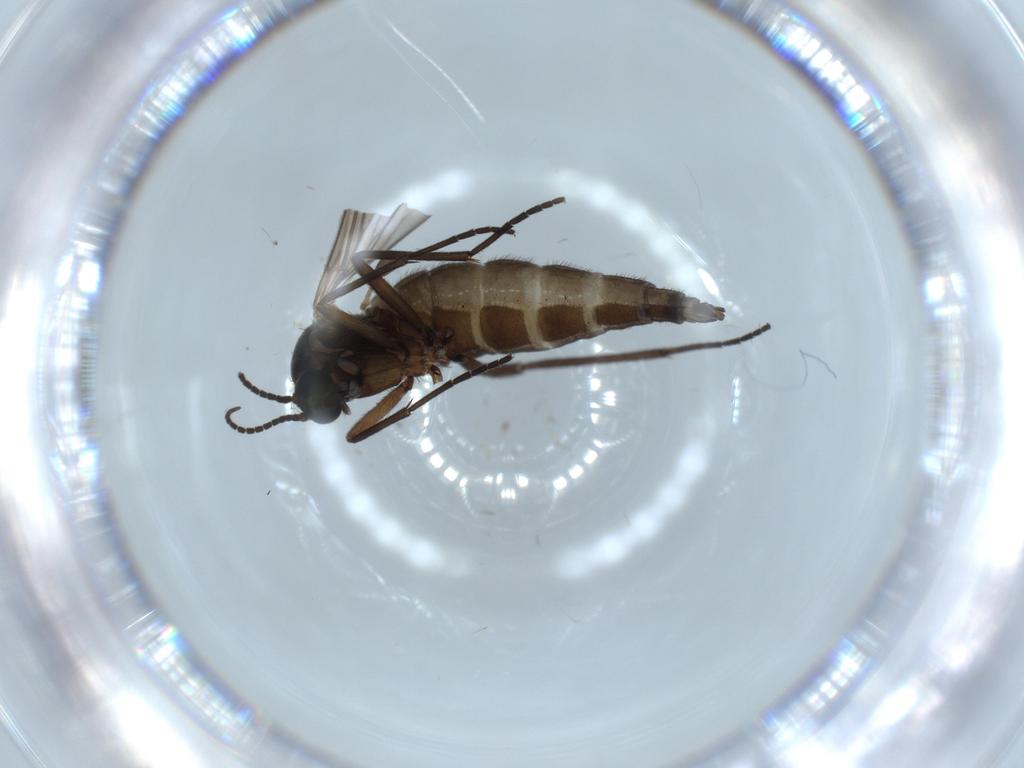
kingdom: Animalia
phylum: Arthropoda
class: Insecta
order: Diptera
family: Sciaridae
